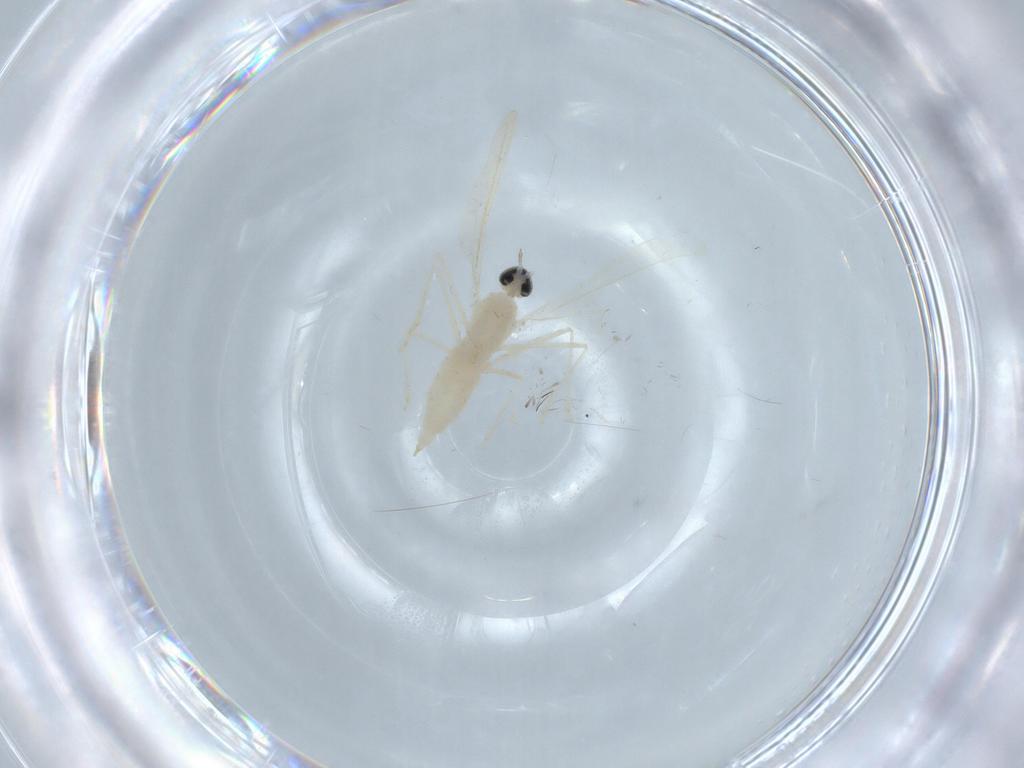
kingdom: Animalia
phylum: Arthropoda
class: Insecta
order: Diptera
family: Cecidomyiidae
